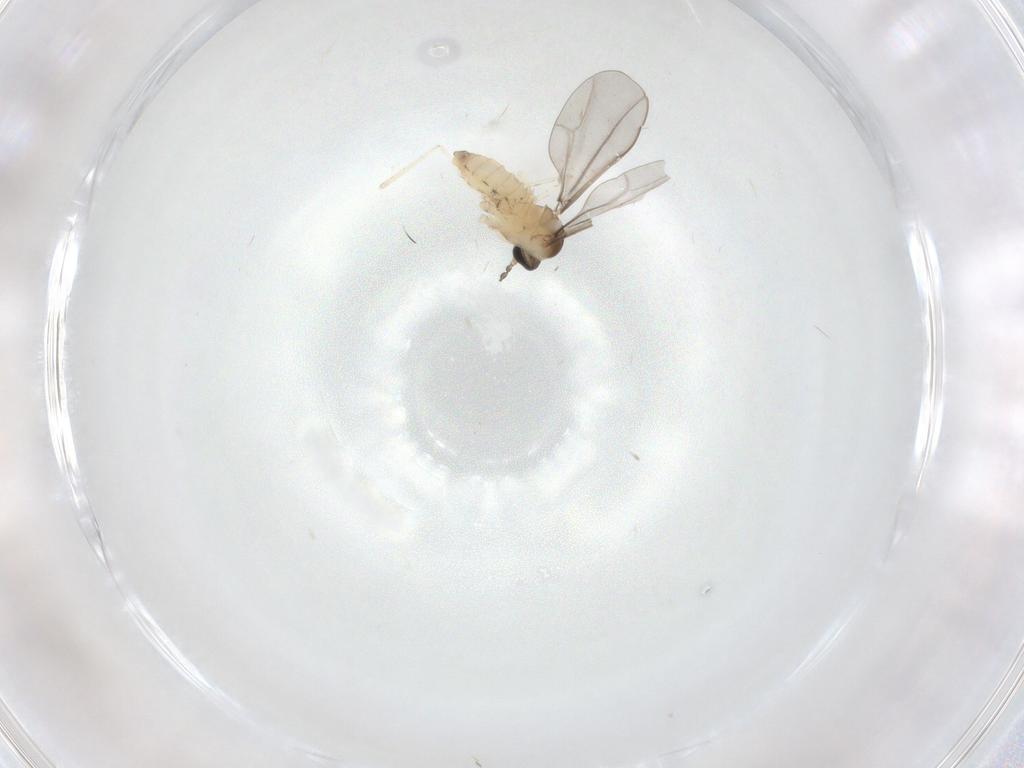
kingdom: Animalia
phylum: Arthropoda
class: Insecta
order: Diptera
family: Cecidomyiidae
